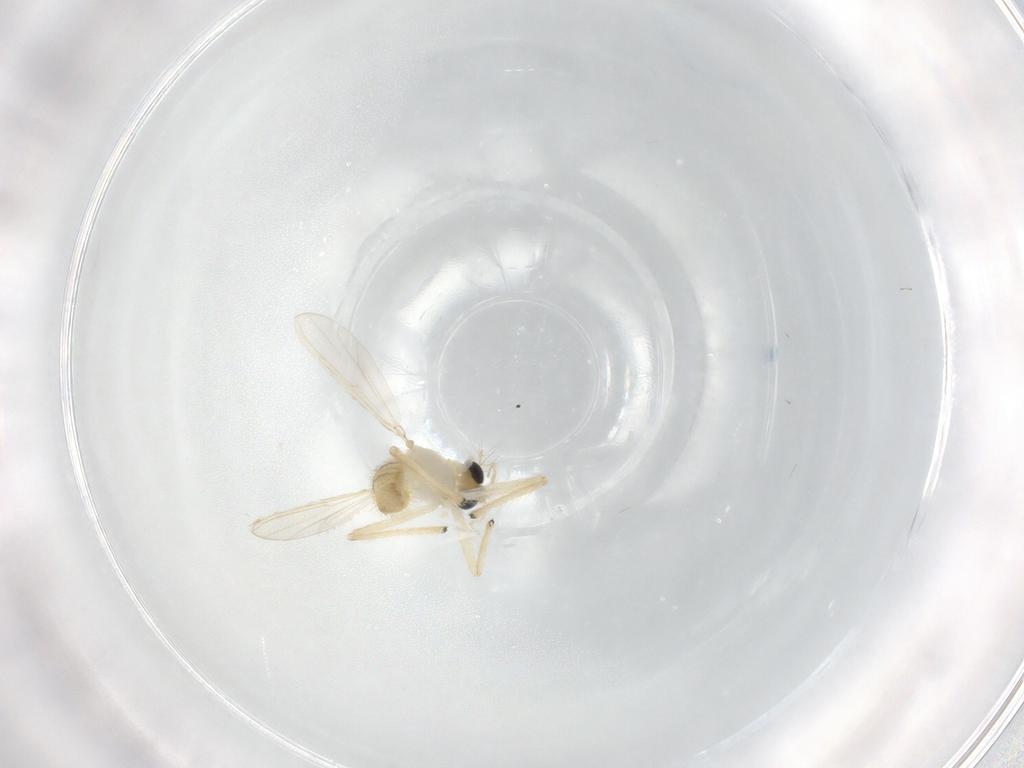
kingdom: Animalia
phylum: Arthropoda
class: Insecta
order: Diptera
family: Chironomidae
